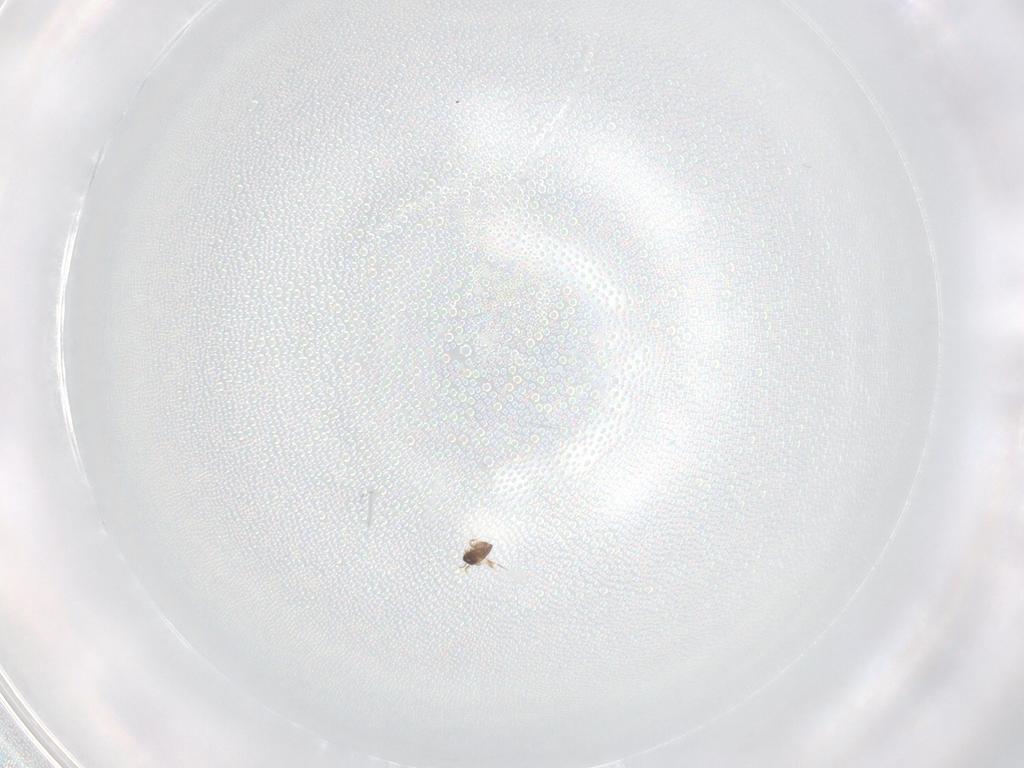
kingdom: Animalia
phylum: Arthropoda
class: Insecta
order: Hymenoptera
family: Mymaridae
